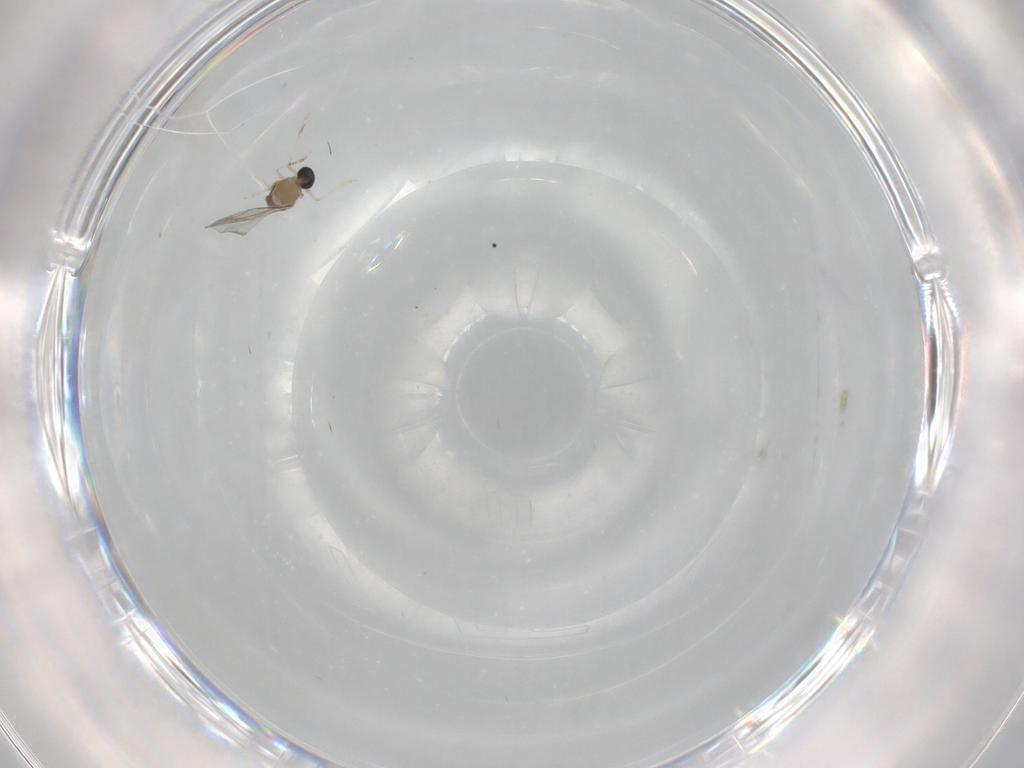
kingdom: Animalia
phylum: Arthropoda
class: Insecta
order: Diptera
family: Cecidomyiidae
